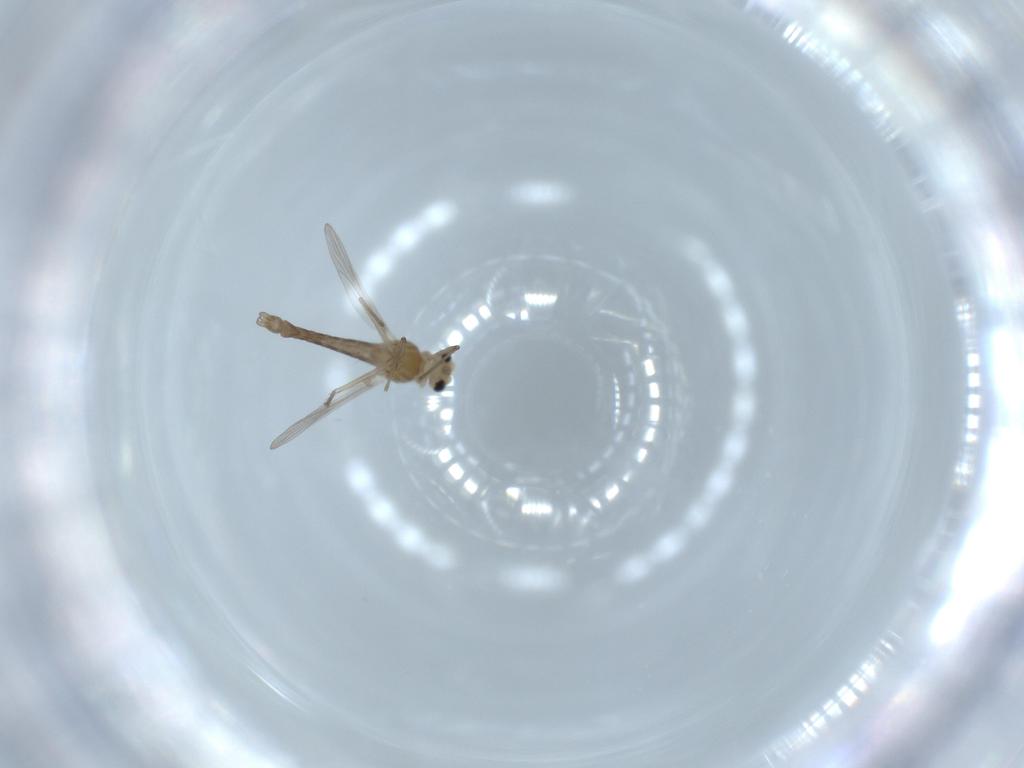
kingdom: Animalia
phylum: Arthropoda
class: Insecta
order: Diptera
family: Chironomidae
